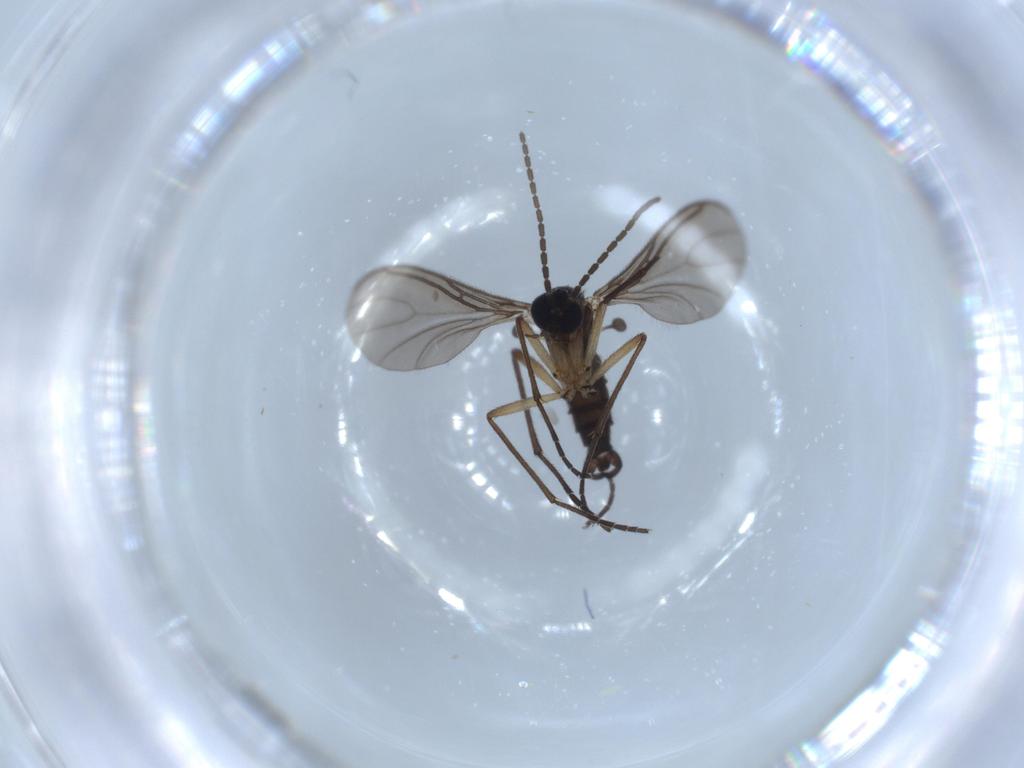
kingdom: Animalia
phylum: Arthropoda
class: Insecta
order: Diptera
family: Sciaridae
